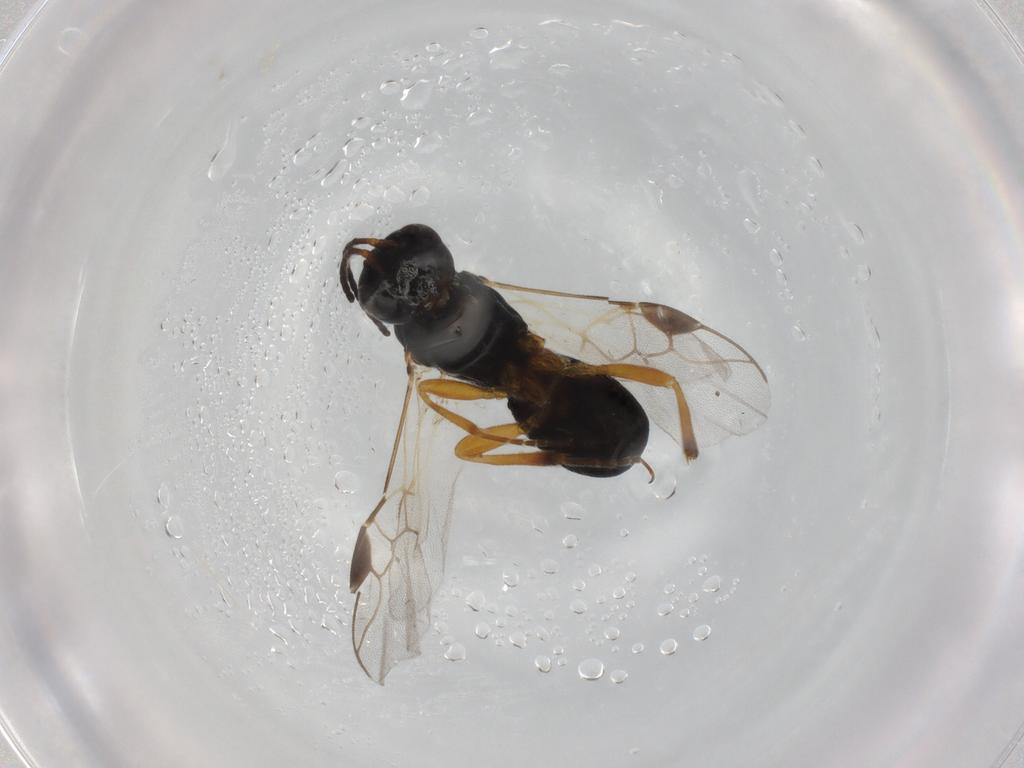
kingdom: Animalia
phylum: Arthropoda
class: Insecta
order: Hymenoptera
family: Braconidae
